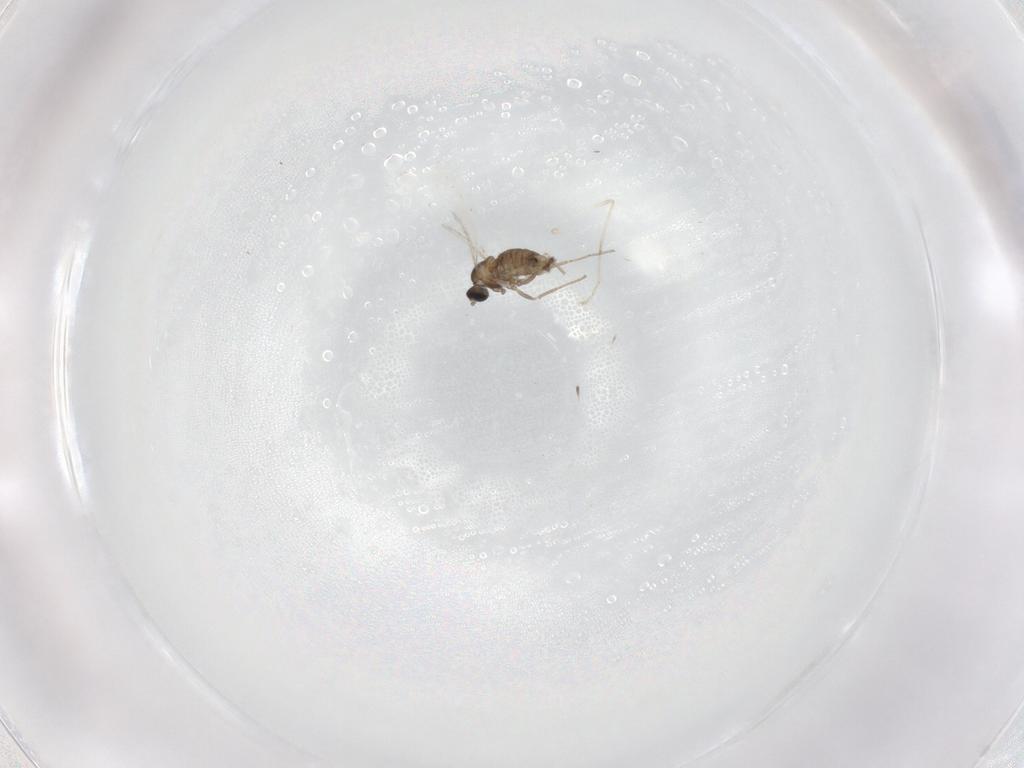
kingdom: Animalia
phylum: Arthropoda
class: Insecta
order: Diptera
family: Cecidomyiidae
